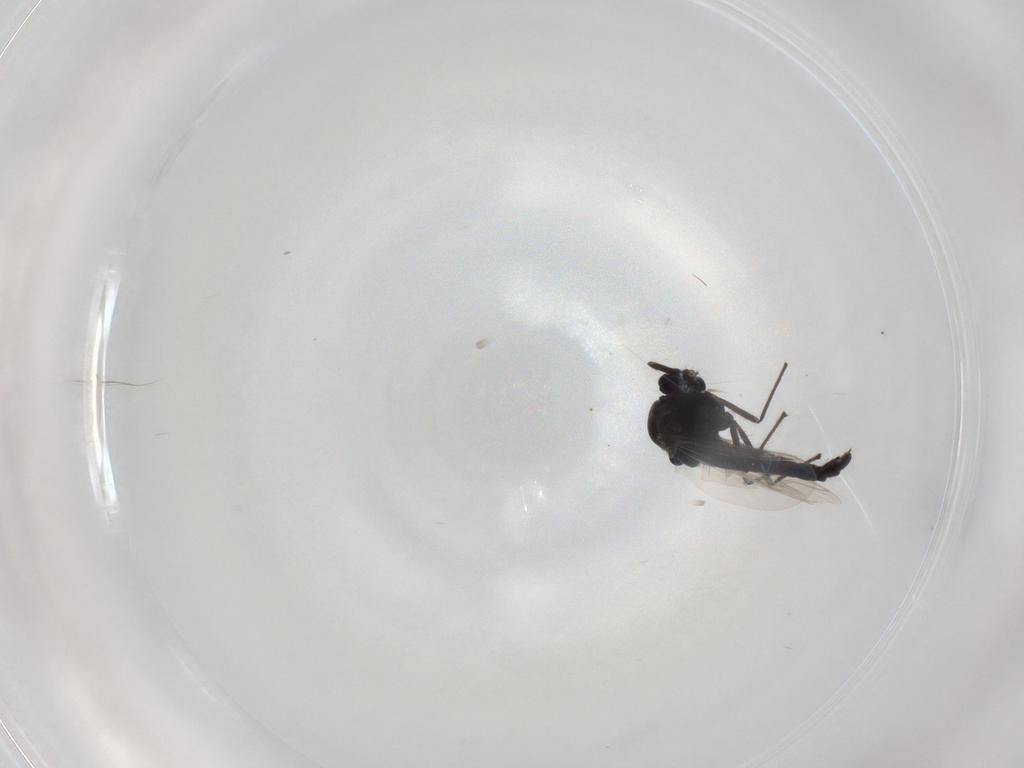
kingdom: Animalia
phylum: Arthropoda
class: Insecta
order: Diptera
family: Chironomidae
